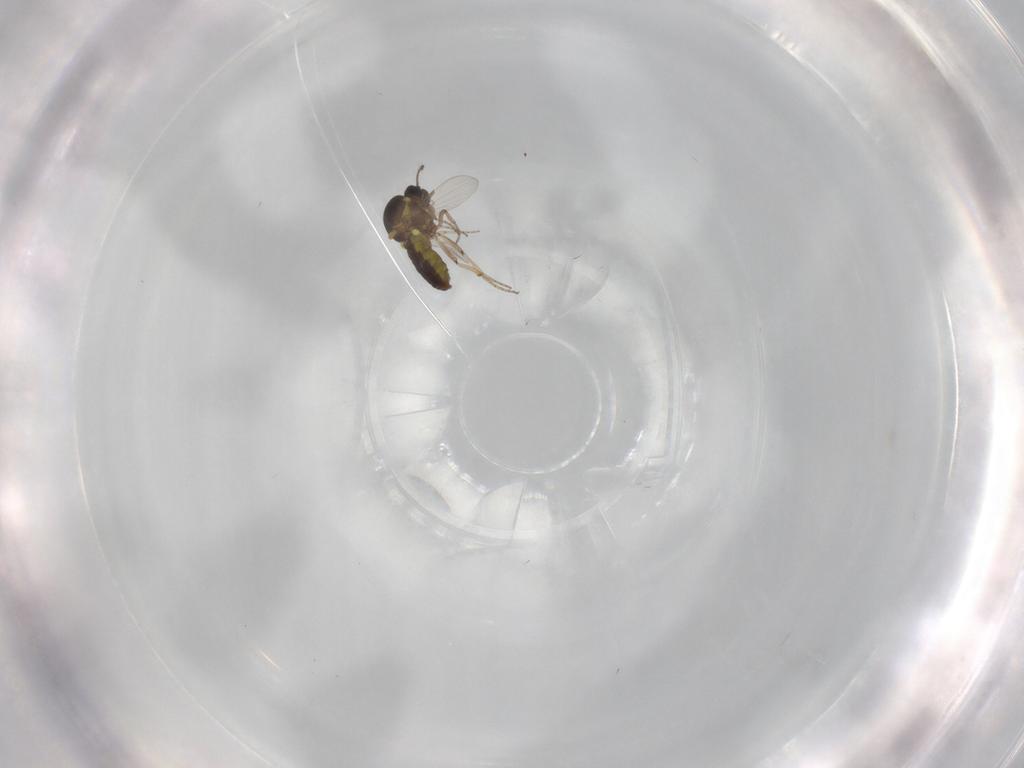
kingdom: Animalia
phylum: Arthropoda
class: Insecta
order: Diptera
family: Ceratopogonidae
